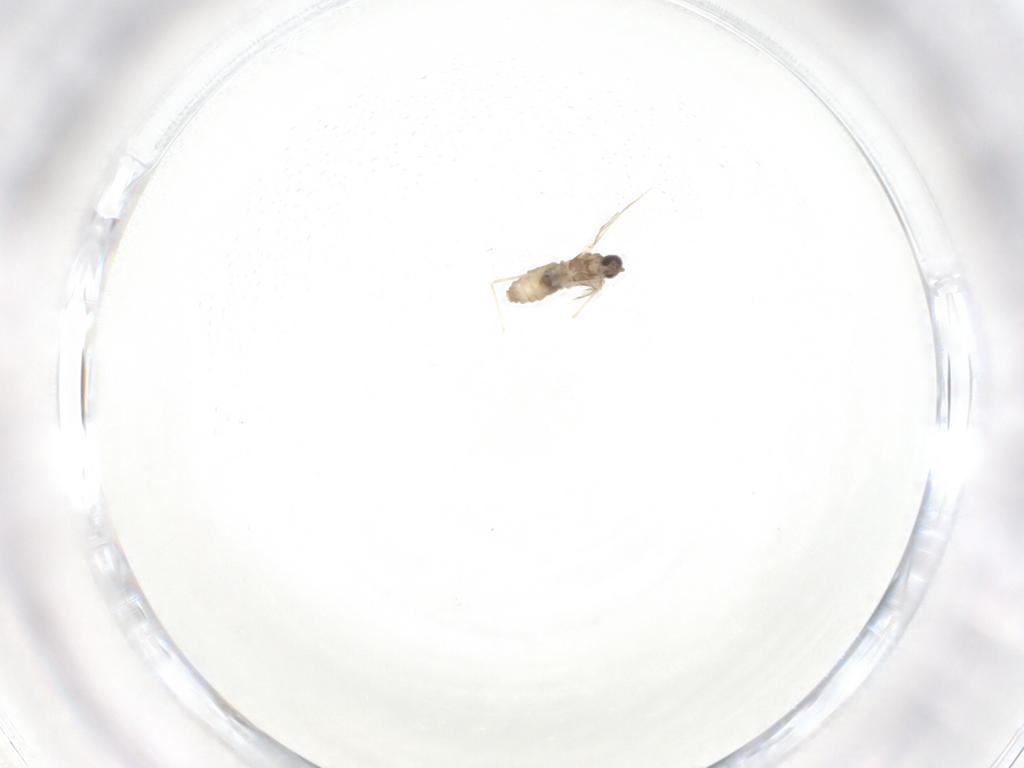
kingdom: Animalia
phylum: Arthropoda
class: Insecta
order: Diptera
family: Cecidomyiidae
